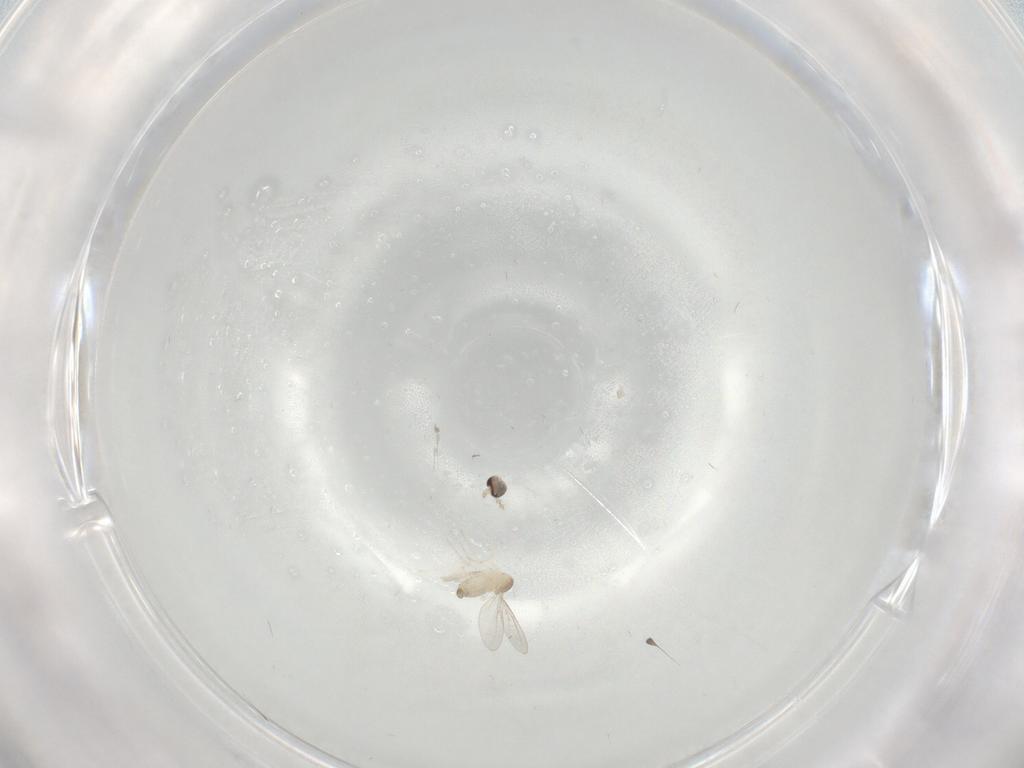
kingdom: Animalia
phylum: Arthropoda
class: Insecta
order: Diptera
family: Cecidomyiidae
